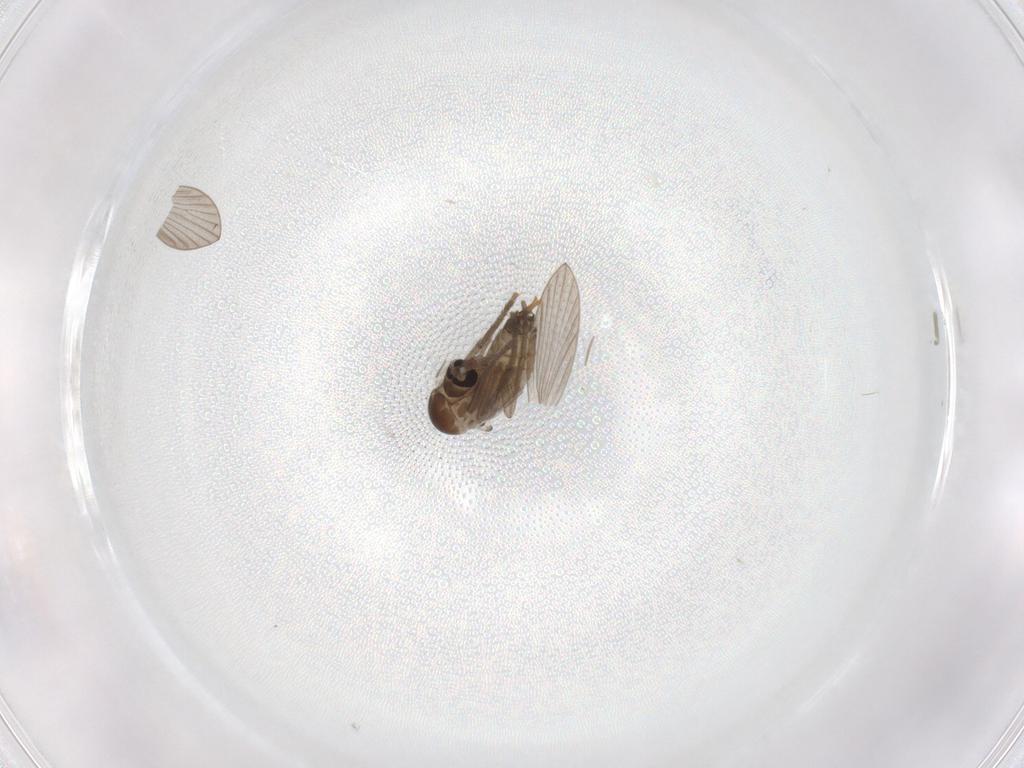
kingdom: Animalia
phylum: Arthropoda
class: Insecta
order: Diptera
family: Psychodidae
